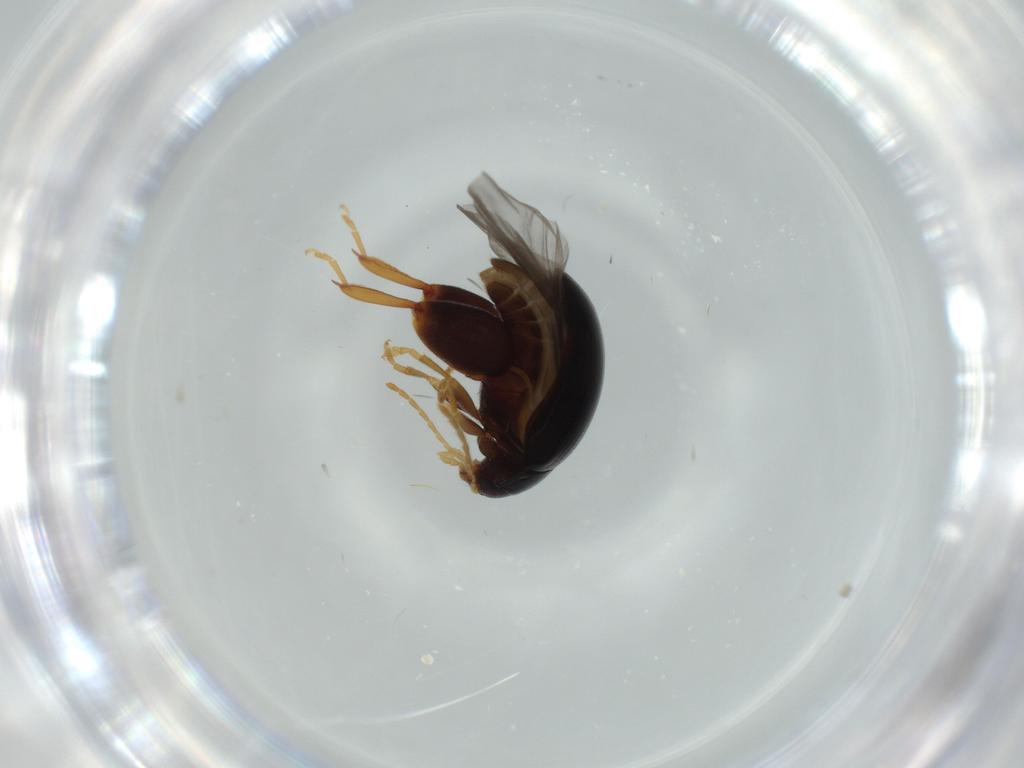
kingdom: Animalia
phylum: Arthropoda
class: Insecta
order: Coleoptera
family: Chrysomelidae
